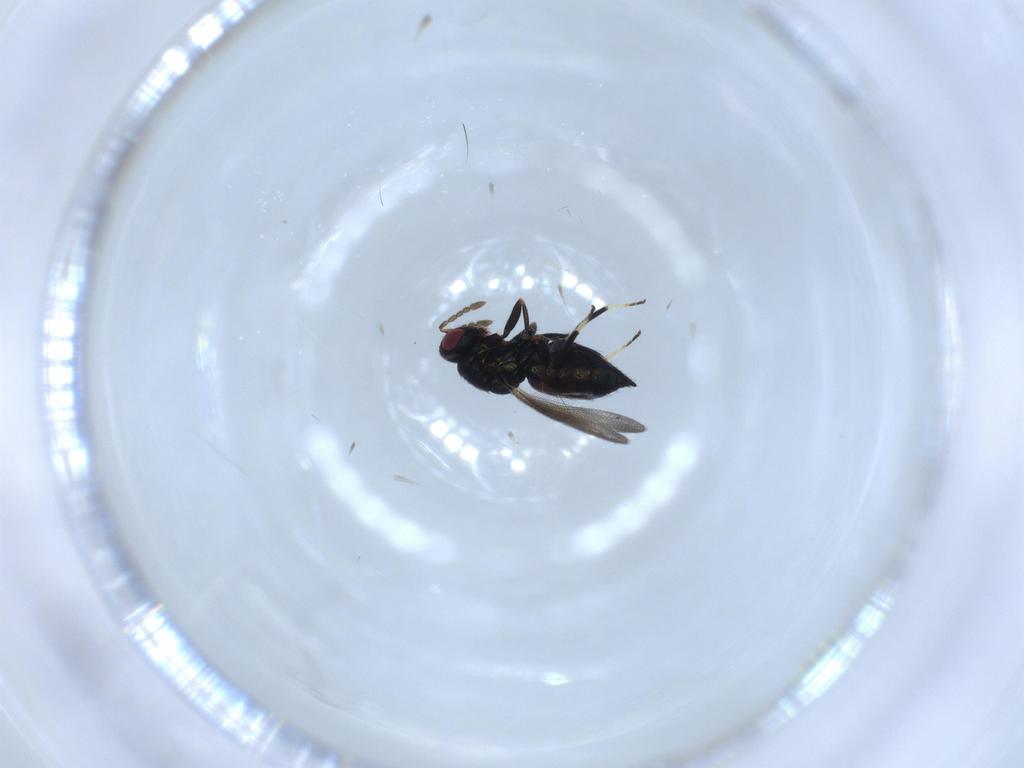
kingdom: Animalia
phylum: Arthropoda
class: Insecta
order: Hymenoptera
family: Eulophidae
